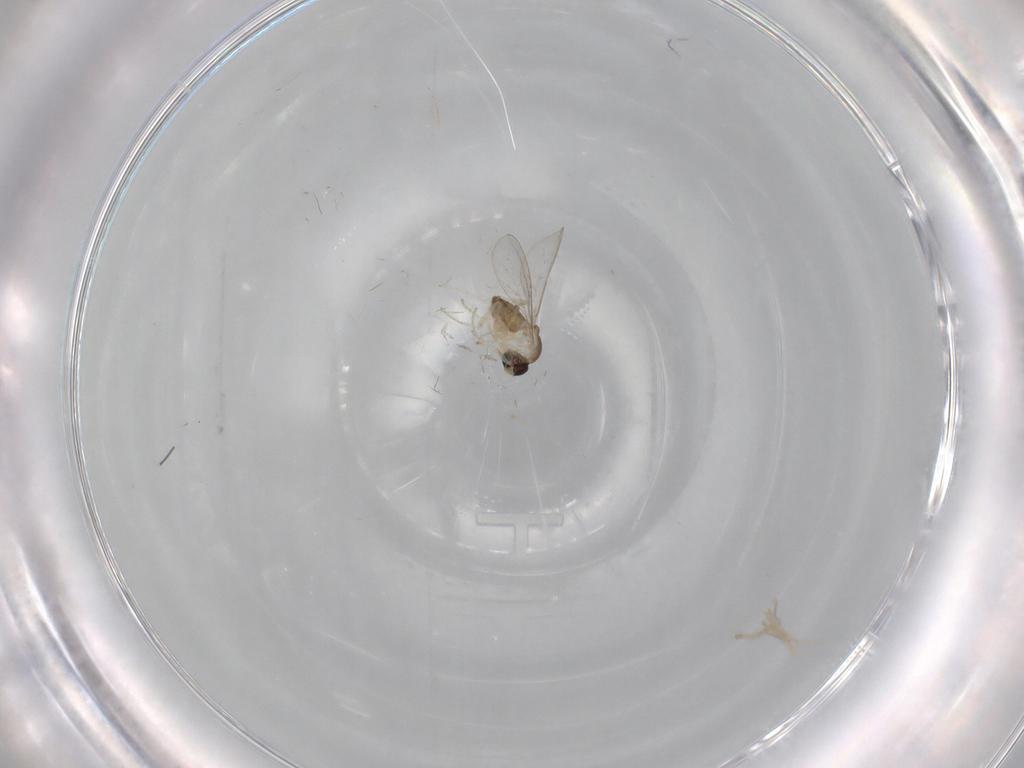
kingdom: Animalia
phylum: Arthropoda
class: Insecta
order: Diptera
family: Cecidomyiidae
